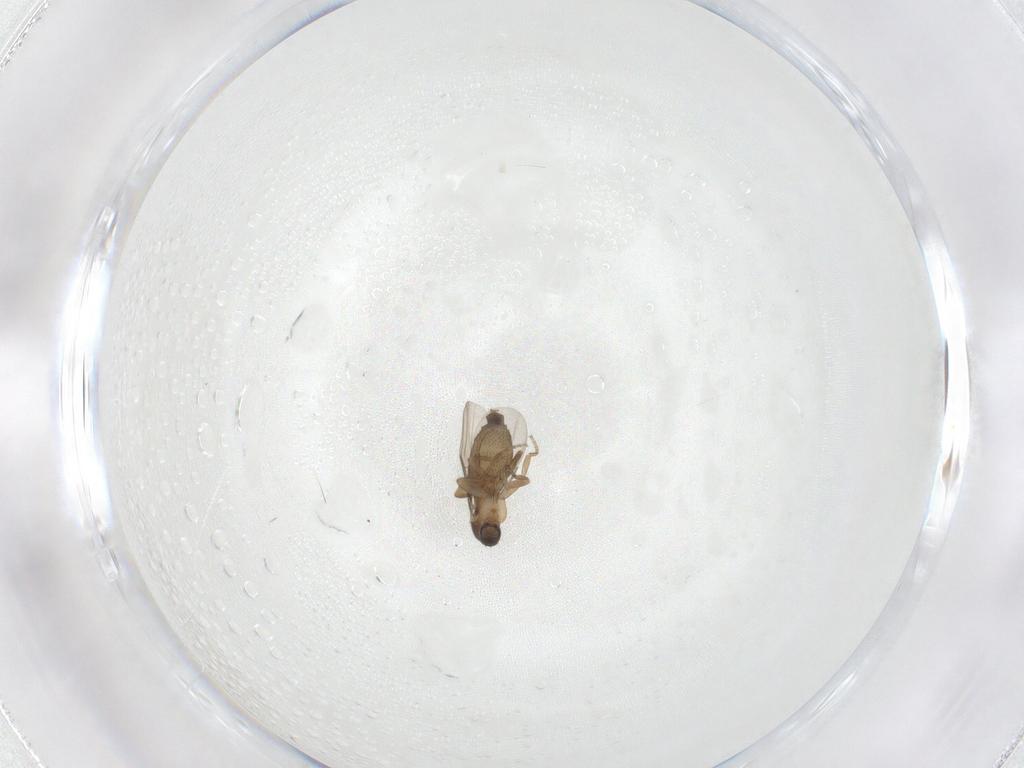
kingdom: Animalia
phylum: Arthropoda
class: Insecta
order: Diptera
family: Phoridae
